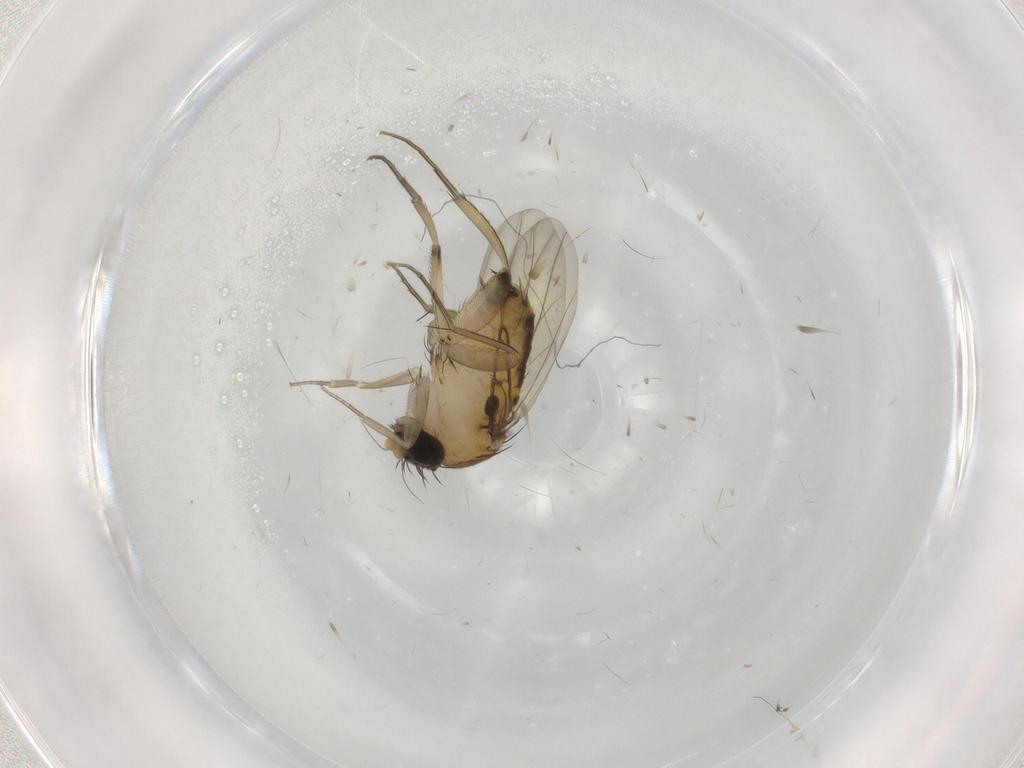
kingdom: Animalia
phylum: Arthropoda
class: Insecta
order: Diptera
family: Phoridae
